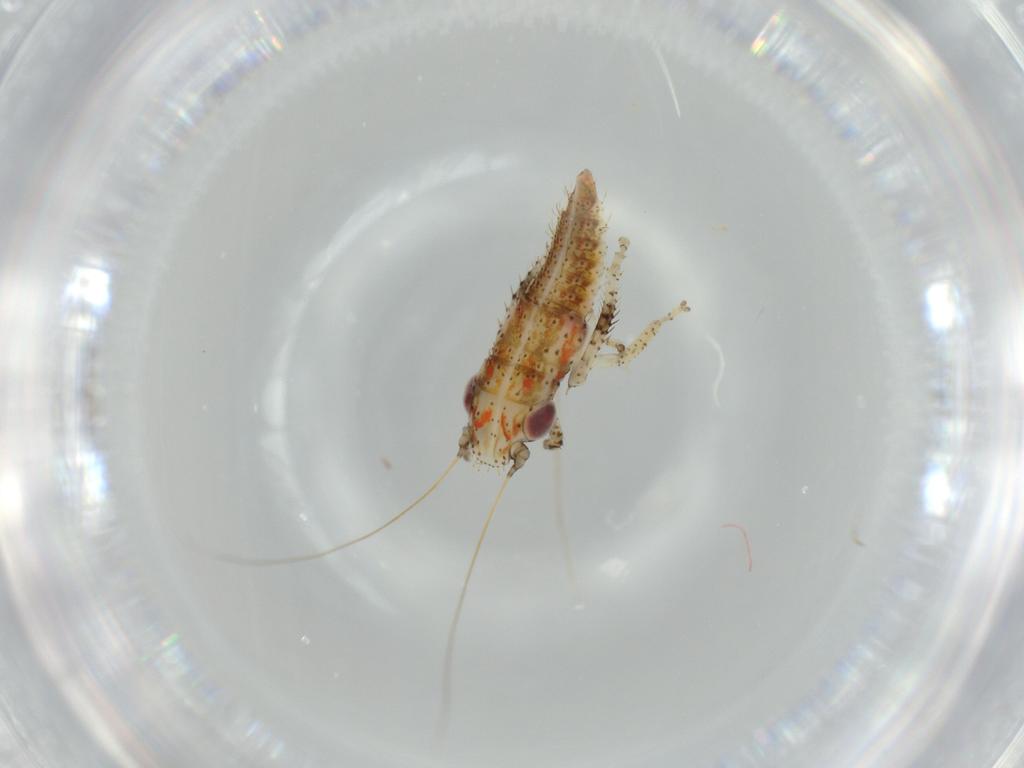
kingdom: Animalia
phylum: Arthropoda
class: Insecta
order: Hemiptera
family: Cicadellidae
